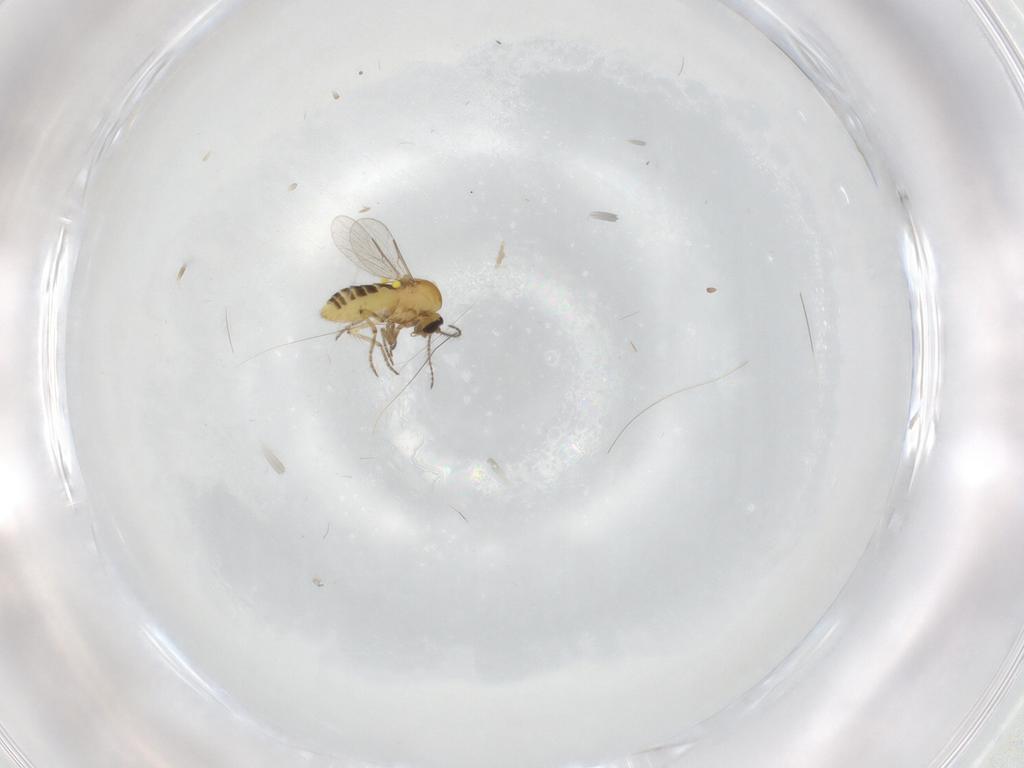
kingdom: Animalia
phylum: Arthropoda
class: Insecta
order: Diptera
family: Ceratopogonidae
